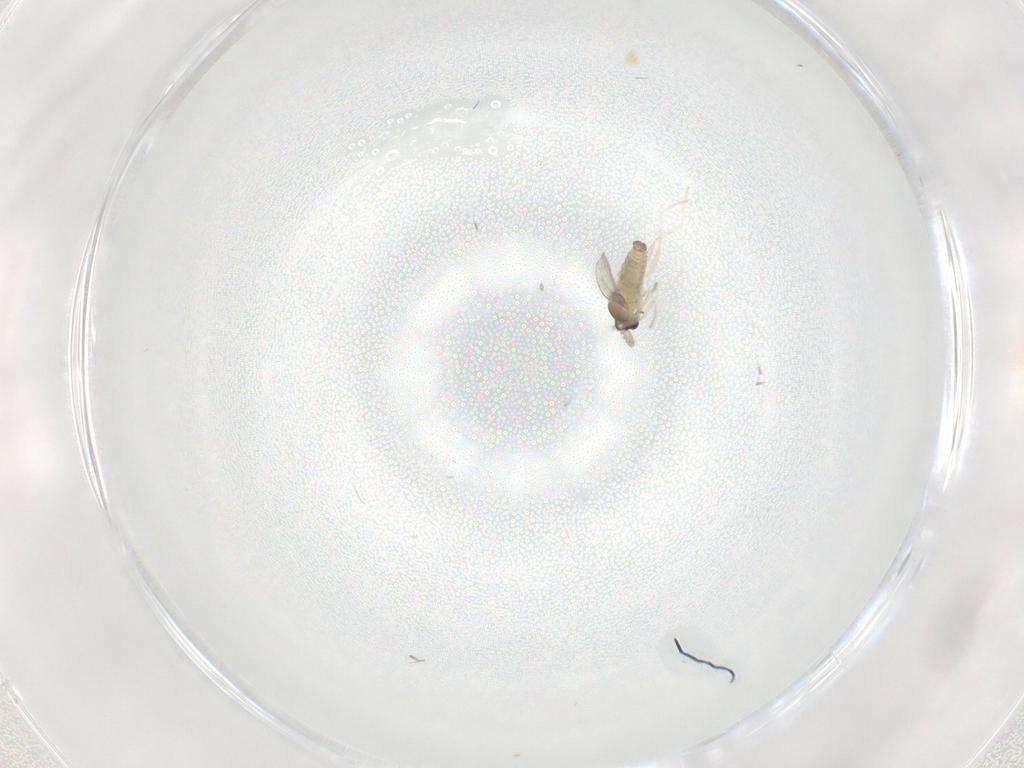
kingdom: Animalia
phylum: Arthropoda
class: Insecta
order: Diptera
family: Cecidomyiidae
